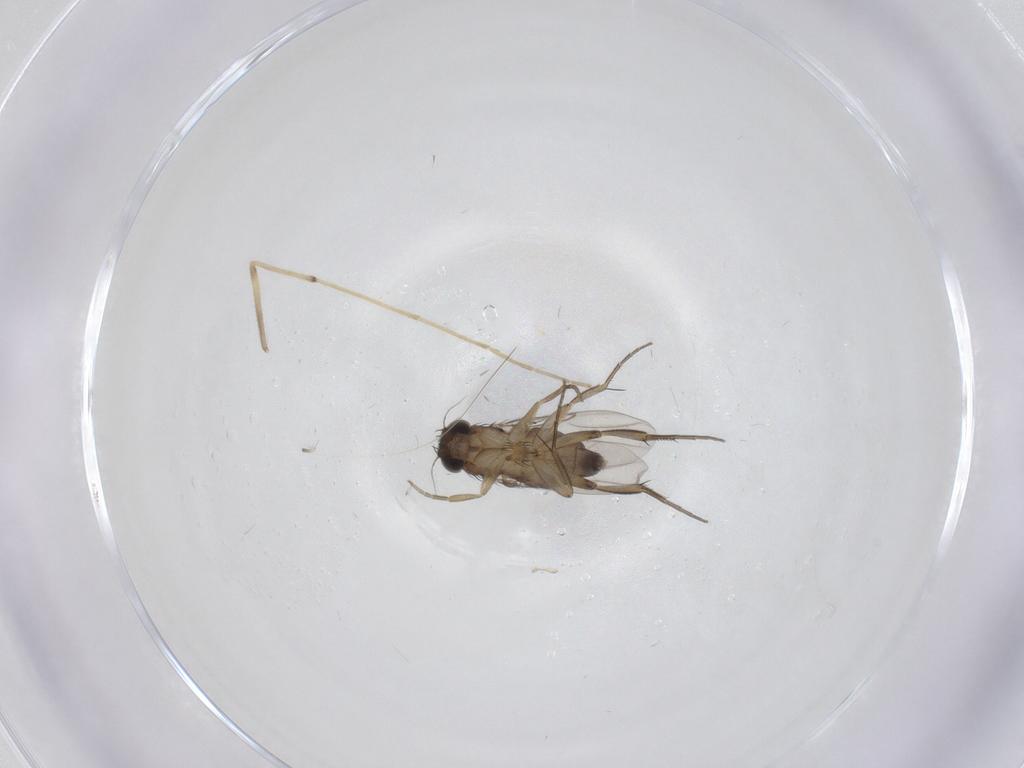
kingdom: Animalia
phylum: Arthropoda
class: Insecta
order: Diptera
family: Phoridae
